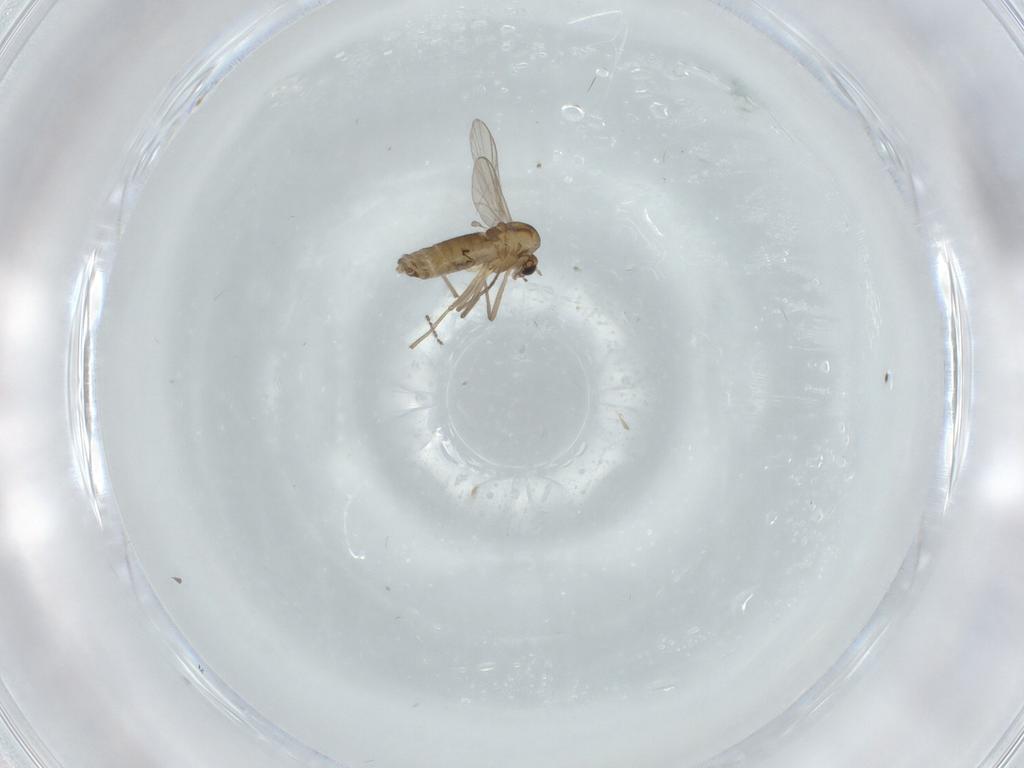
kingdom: Animalia
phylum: Arthropoda
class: Insecta
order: Diptera
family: Chironomidae
